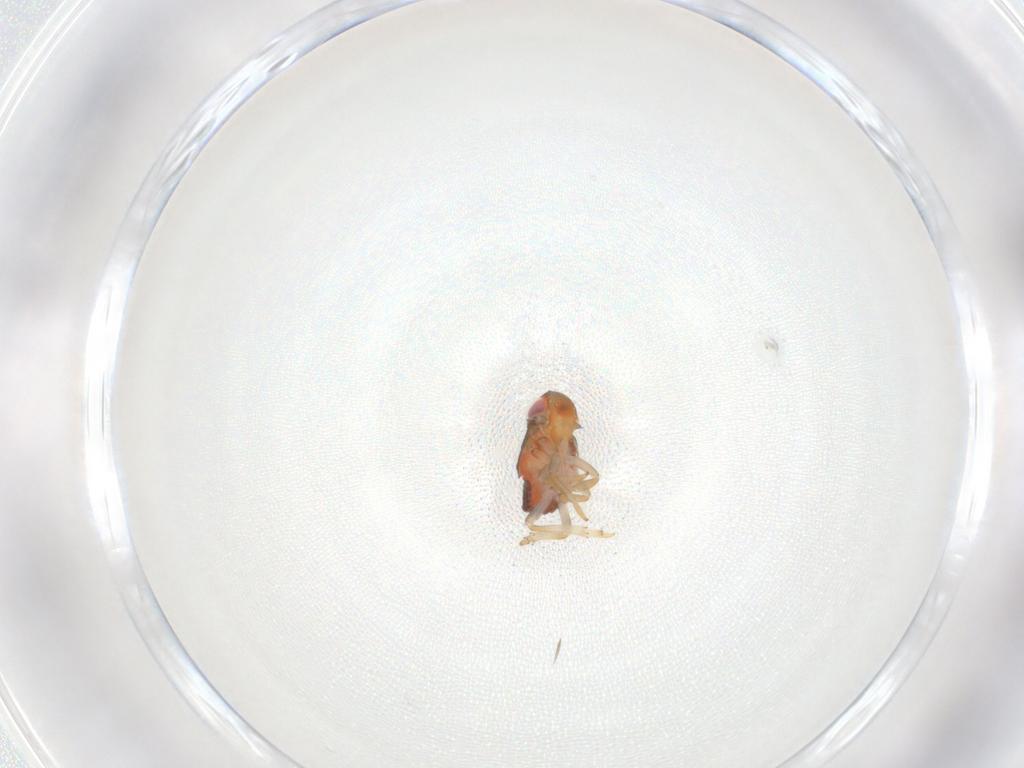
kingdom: Animalia
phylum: Arthropoda
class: Insecta
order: Hemiptera
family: Issidae
